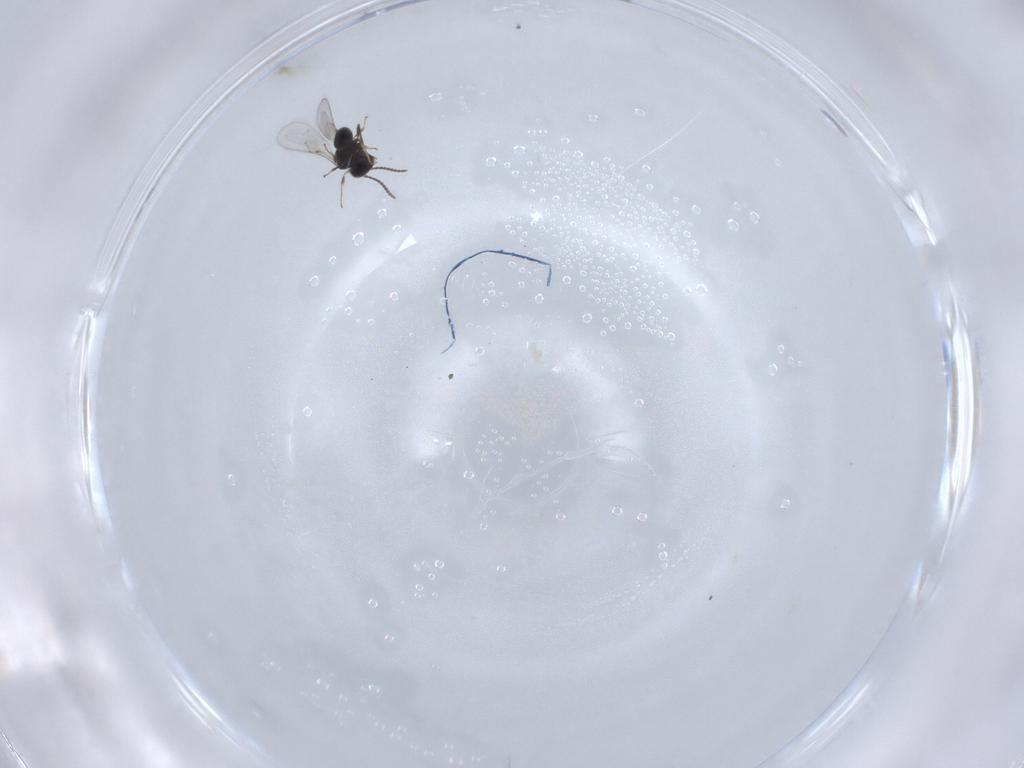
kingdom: Animalia
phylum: Arthropoda
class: Insecta
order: Hymenoptera
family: Scelionidae
